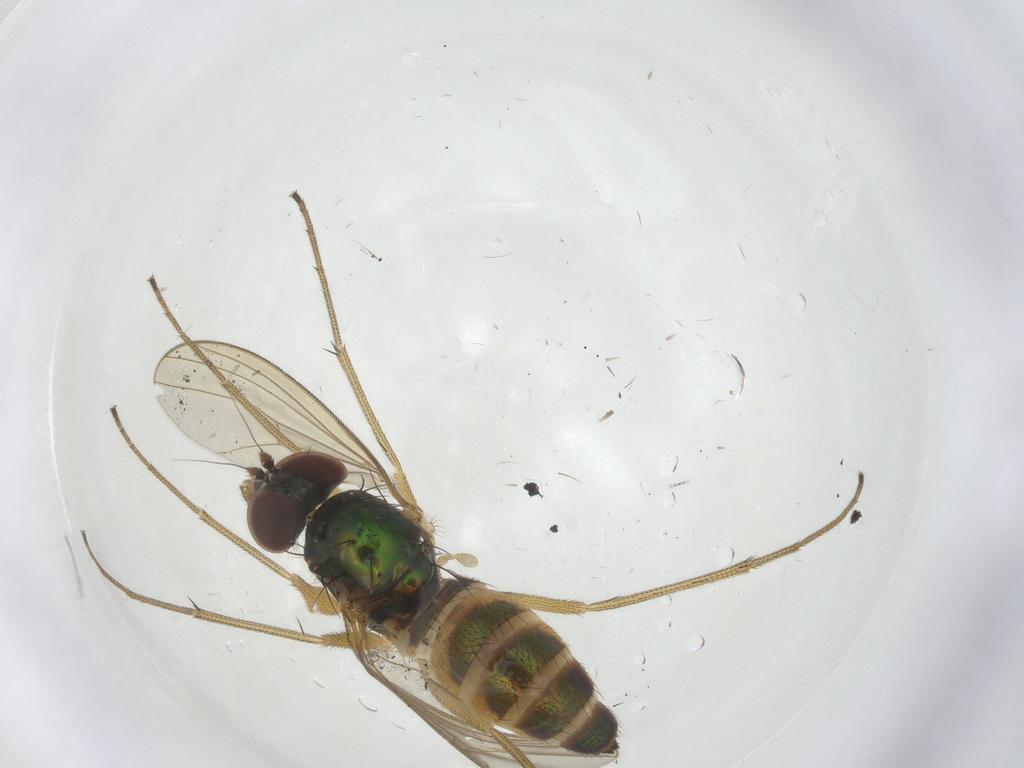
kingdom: Animalia
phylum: Arthropoda
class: Insecta
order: Diptera
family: Dolichopodidae
